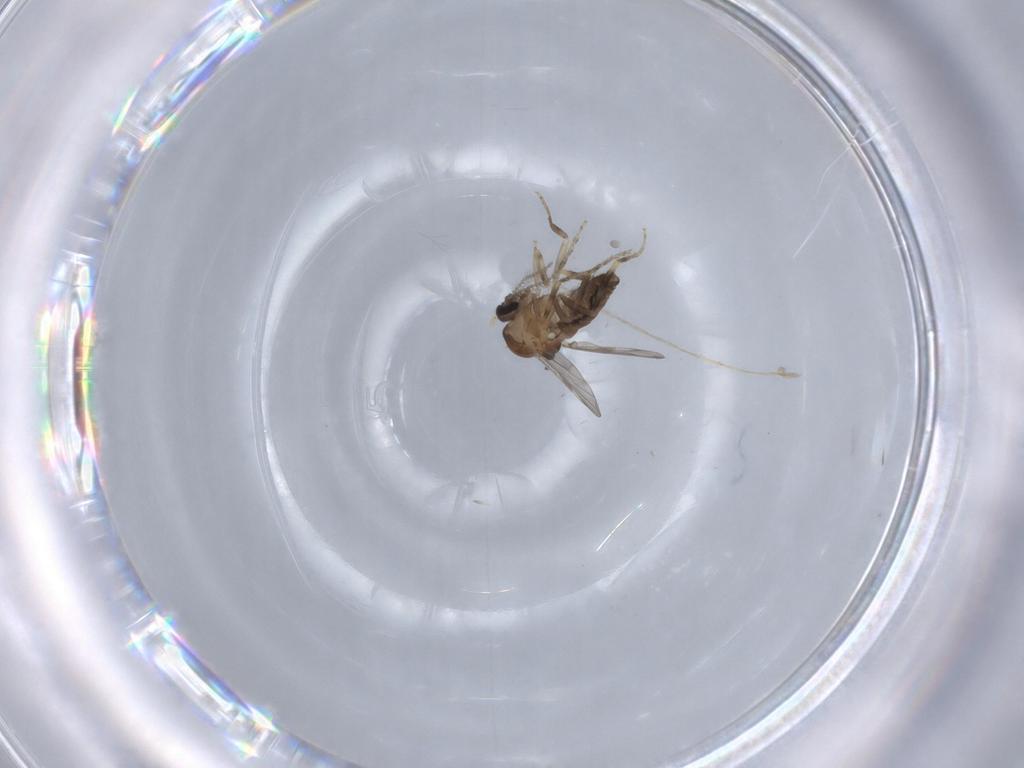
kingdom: Animalia
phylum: Arthropoda
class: Insecta
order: Diptera
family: Ceratopogonidae
